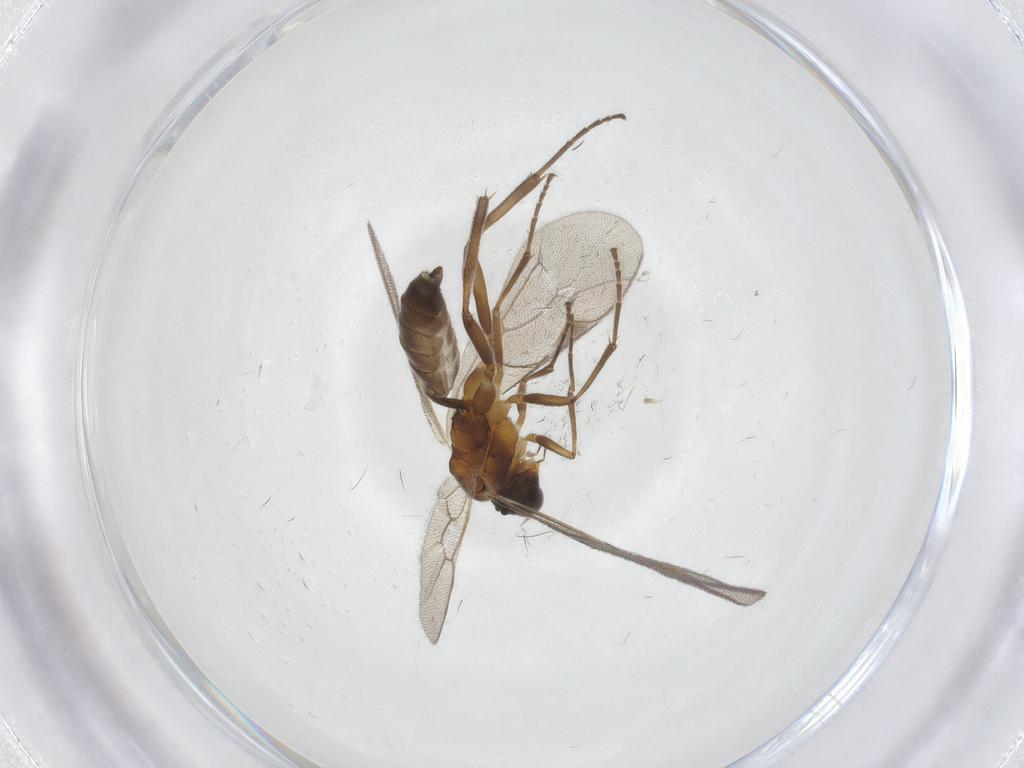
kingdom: Animalia
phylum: Arthropoda
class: Insecta
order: Hymenoptera
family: Ichneumonidae
